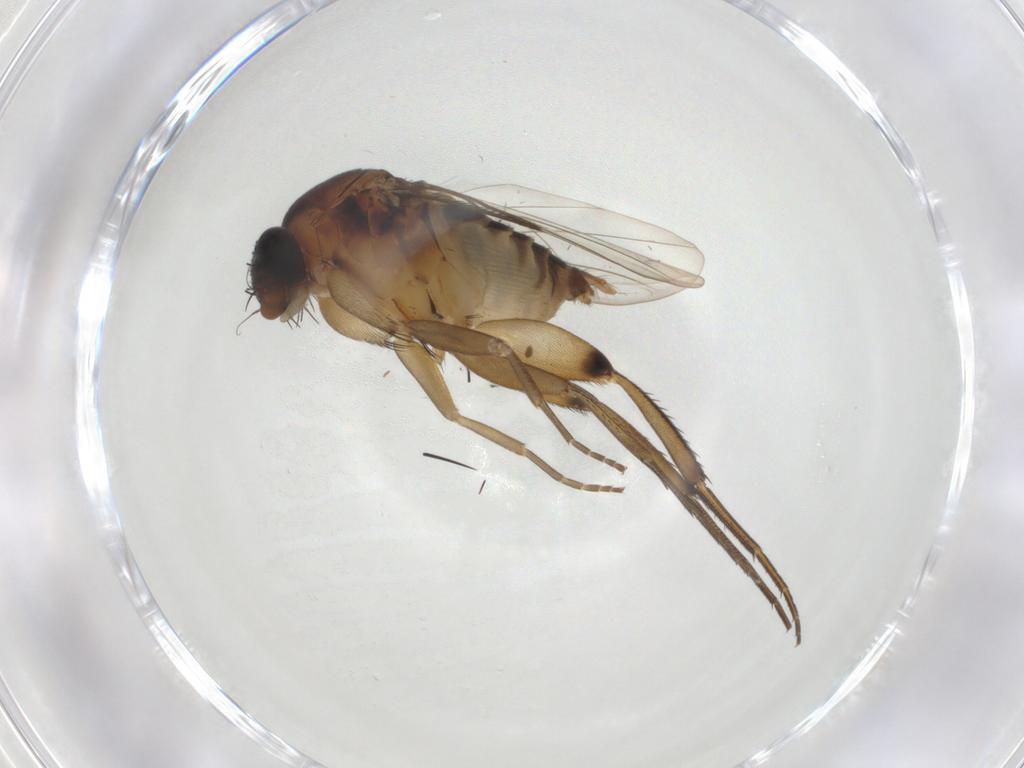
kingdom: Animalia
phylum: Arthropoda
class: Insecta
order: Diptera
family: Phoridae
